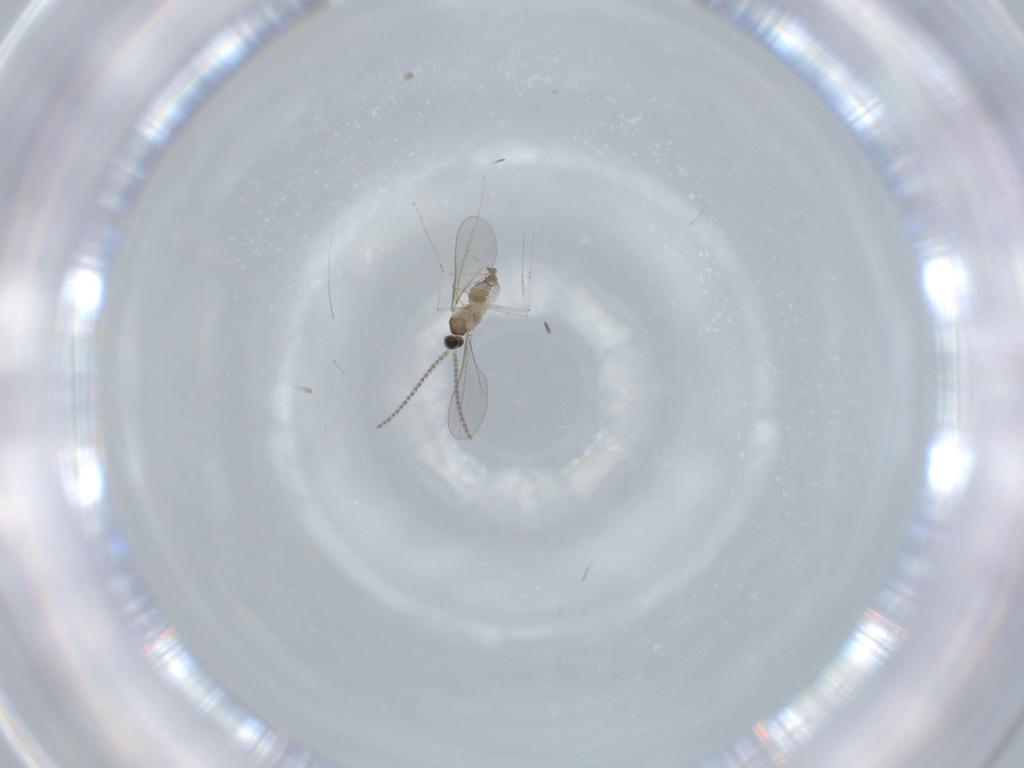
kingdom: Animalia
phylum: Arthropoda
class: Insecta
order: Diptera
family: Cecidomyiidae
